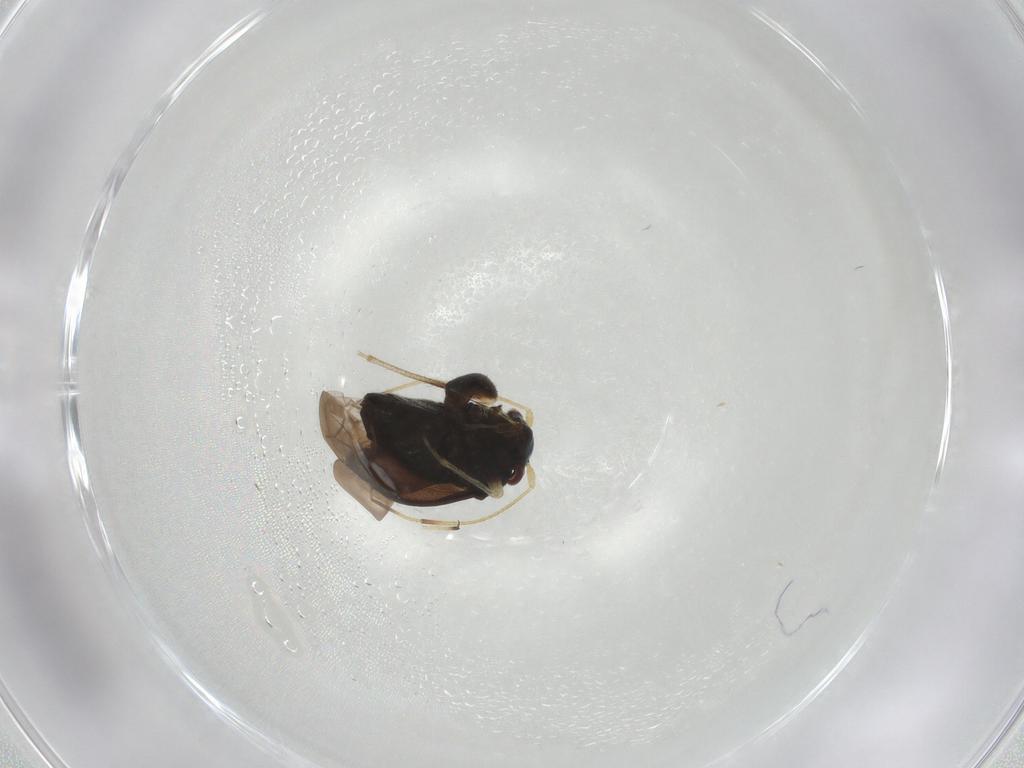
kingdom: Animalia
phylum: Arthropoda
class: Insecta
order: Hemiptera
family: Miridae
